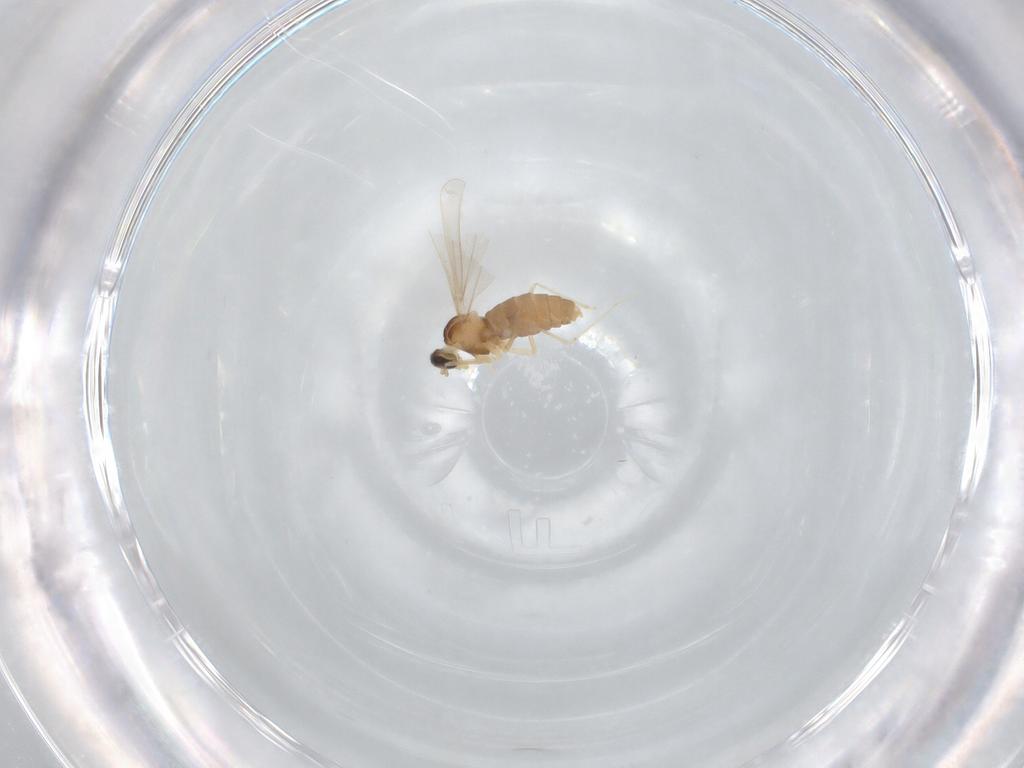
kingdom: Animalia
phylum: Arthropoda
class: Insecta
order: Diptera
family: Cecidomyiidae
